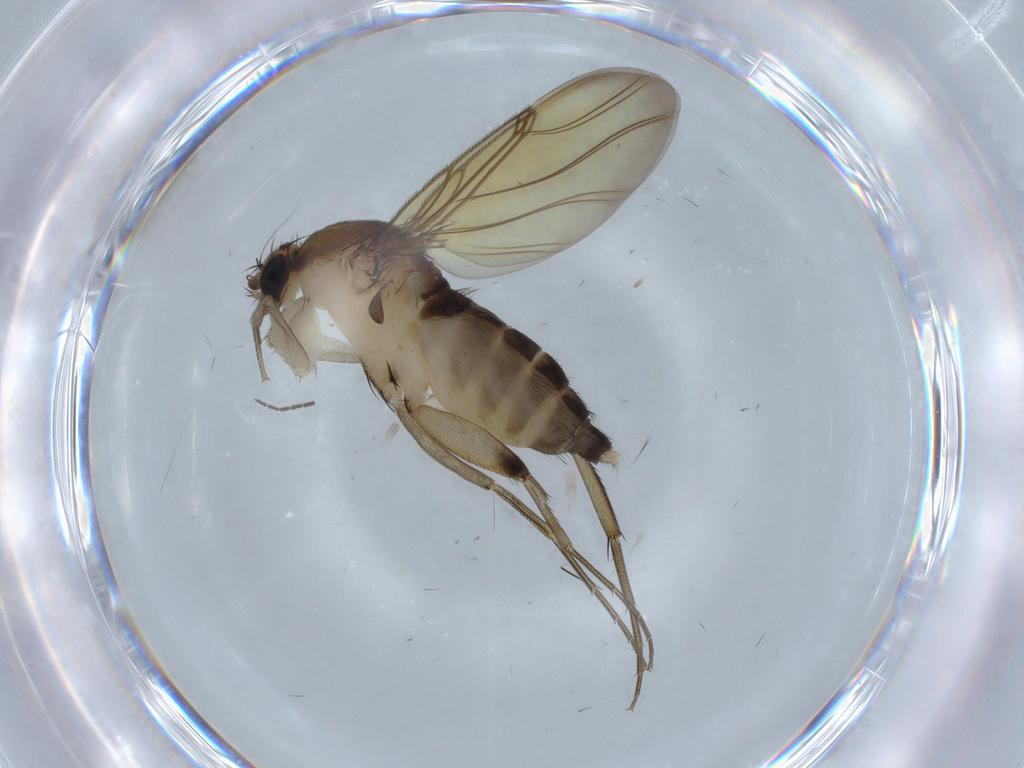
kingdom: Animalia
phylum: Arthropoda
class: Insecta
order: Diptera
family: Phoridae
